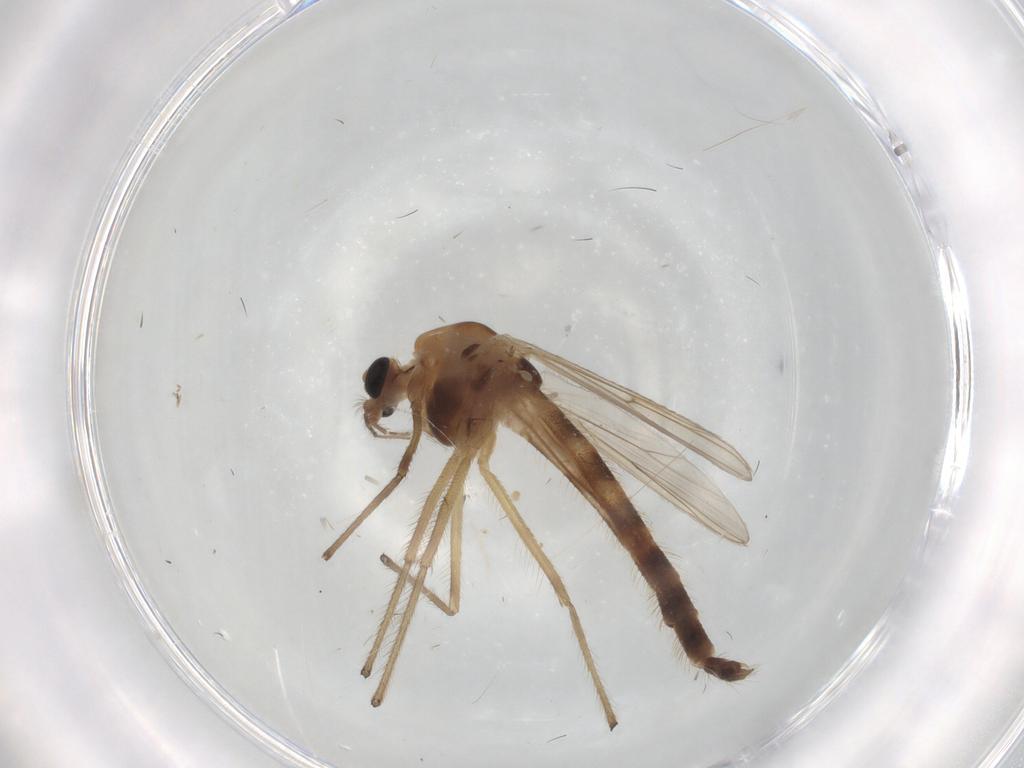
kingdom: Animalia
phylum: Arthropoda
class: Insecta
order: Diptera
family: Chironomidae
